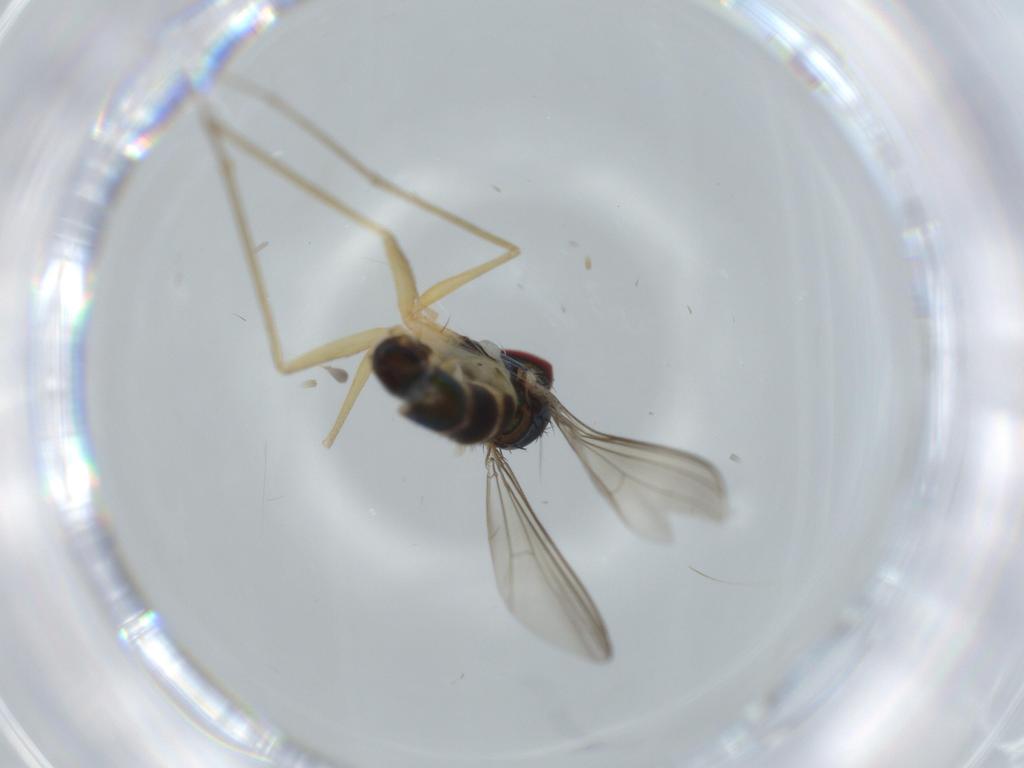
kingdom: Animalia
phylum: Arthropoda
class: Insecta
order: Diptera
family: Dolichopodidae
